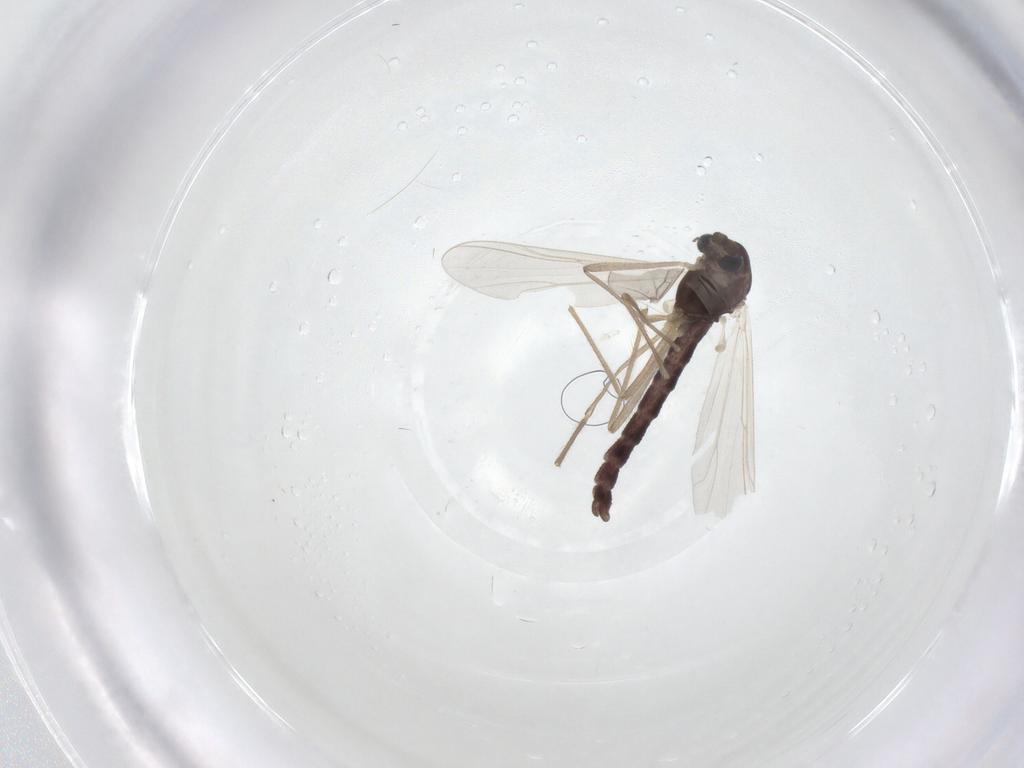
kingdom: Animalia
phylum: Arthropoda
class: Insecta
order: Diptera
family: Chironomidae
